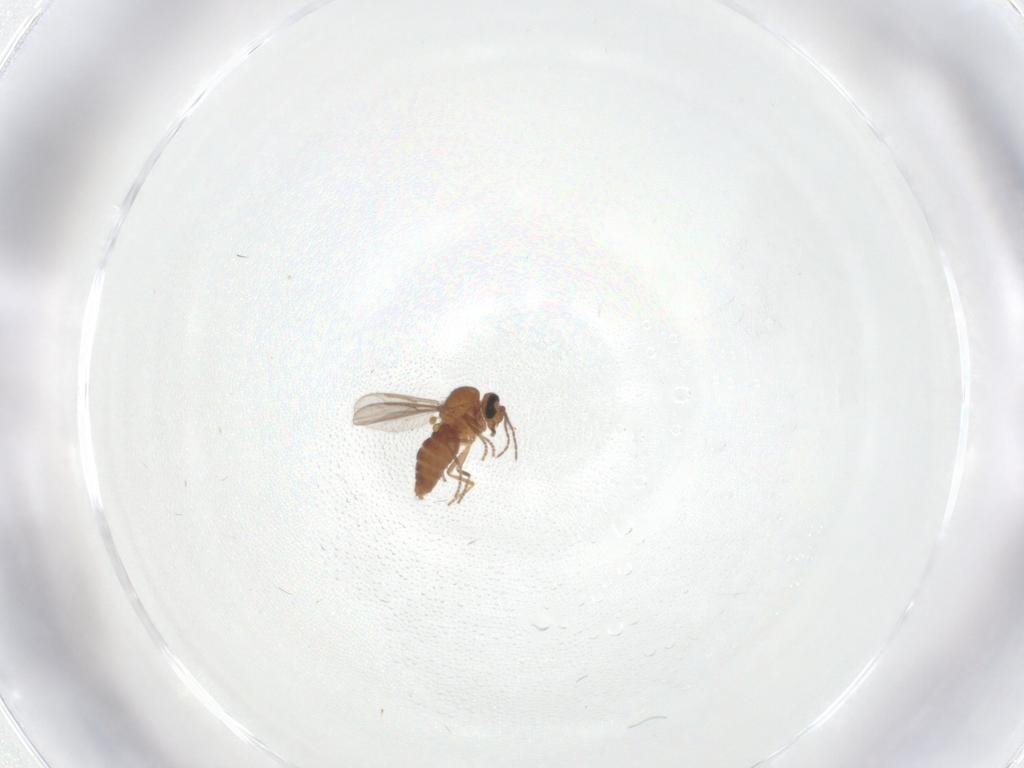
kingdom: Animalia
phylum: Arthropoda
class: Insecta
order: Diptera
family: Ceratopogonidae
